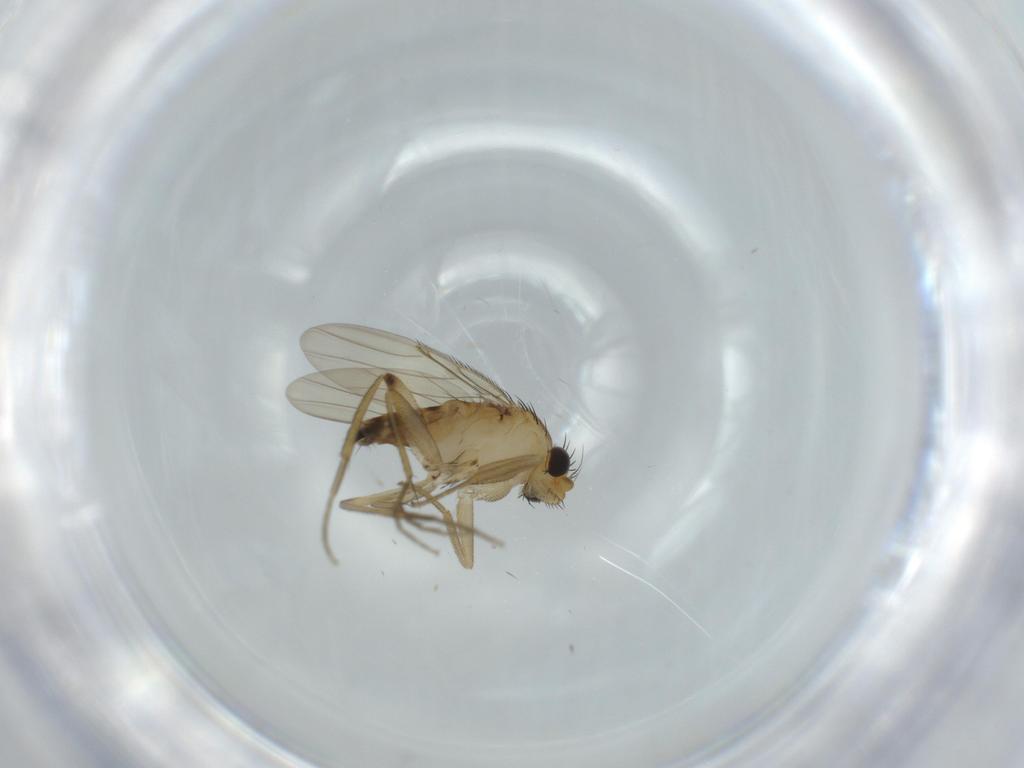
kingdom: Animalia
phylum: Arthropoda
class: Insecta
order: Diptera
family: Phoridae
